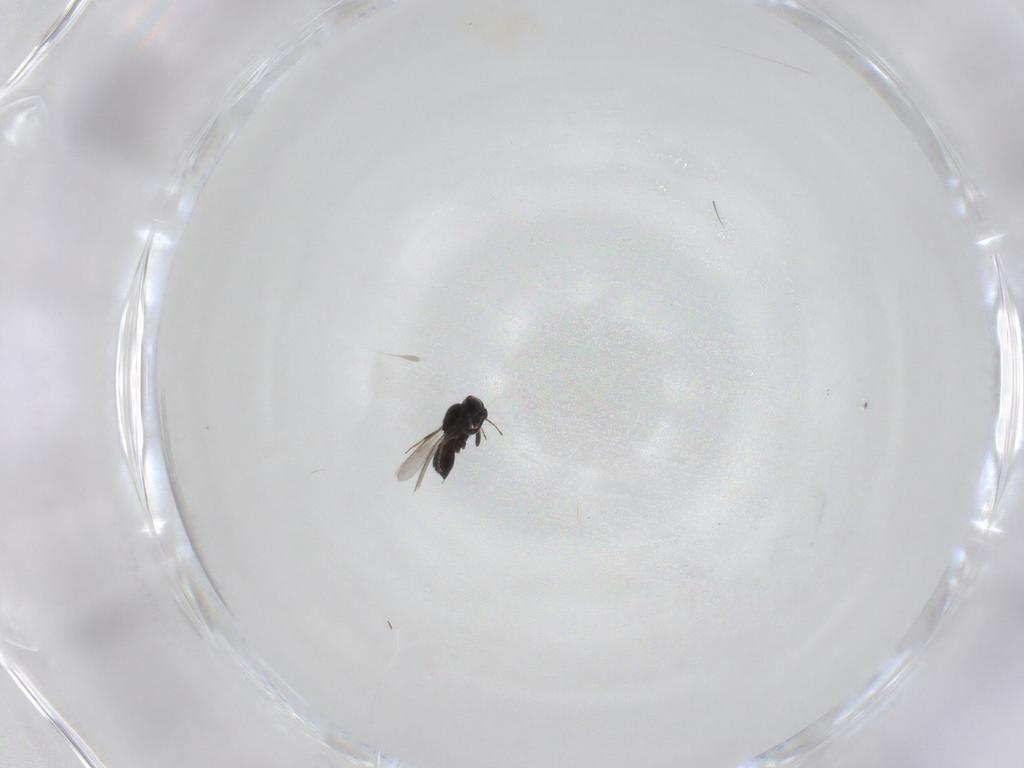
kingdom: Animalia
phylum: Arthropoda
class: Insecta
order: Hymenoptera
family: Scelionidae
